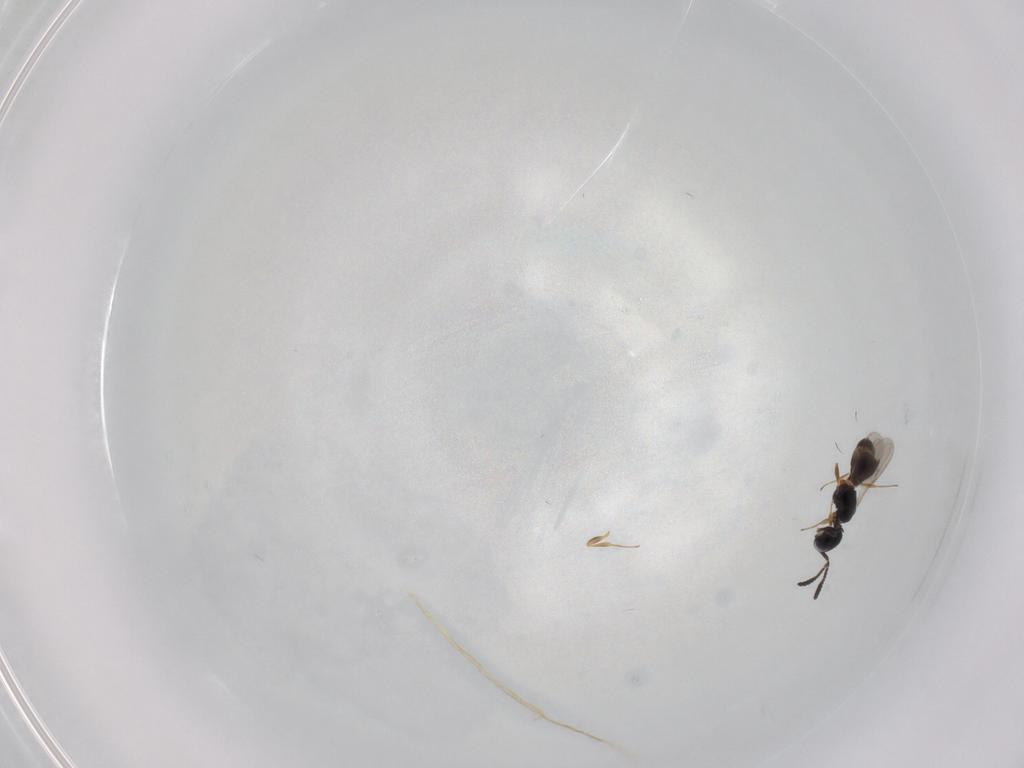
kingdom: Animalia
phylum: Arthropoda
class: Insecta
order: Hymenoptera
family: Scelionidae
